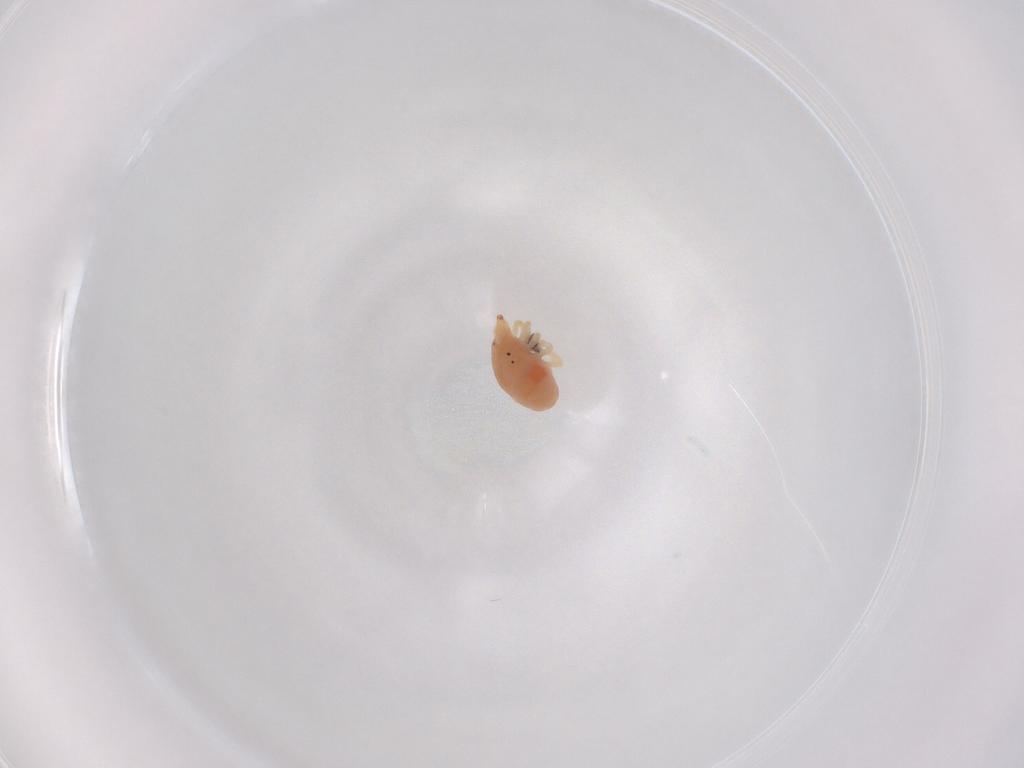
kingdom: Animalia
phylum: Arthropoda
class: Arachnida
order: Trombidiformes
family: Bdellidae
